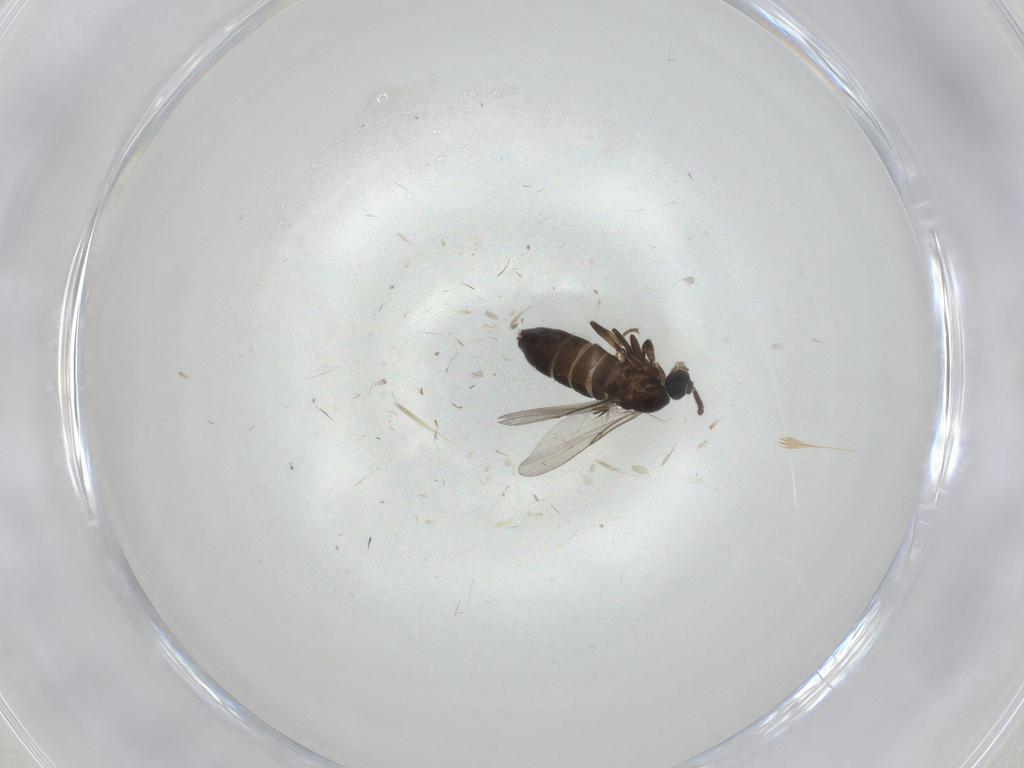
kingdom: Animalia
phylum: Arthropoda
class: Insecta
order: Diptera
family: Scatopsidae
